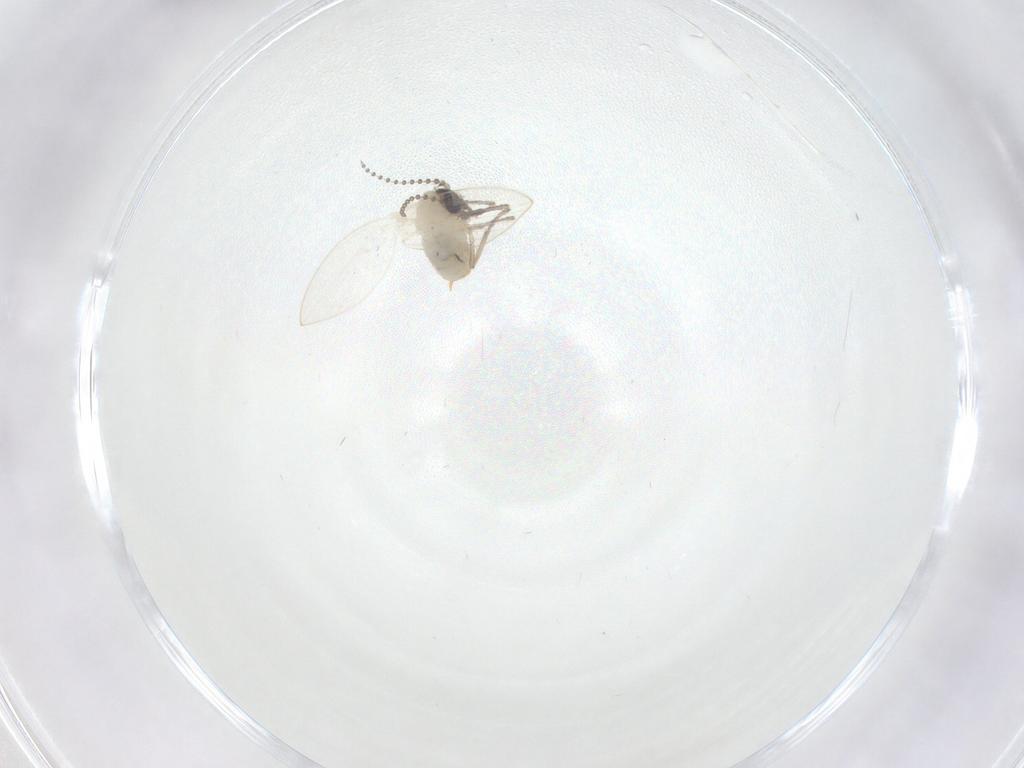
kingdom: Animalia
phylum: Arthropoda
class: Insecta
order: Diptera
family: Psychodidae
